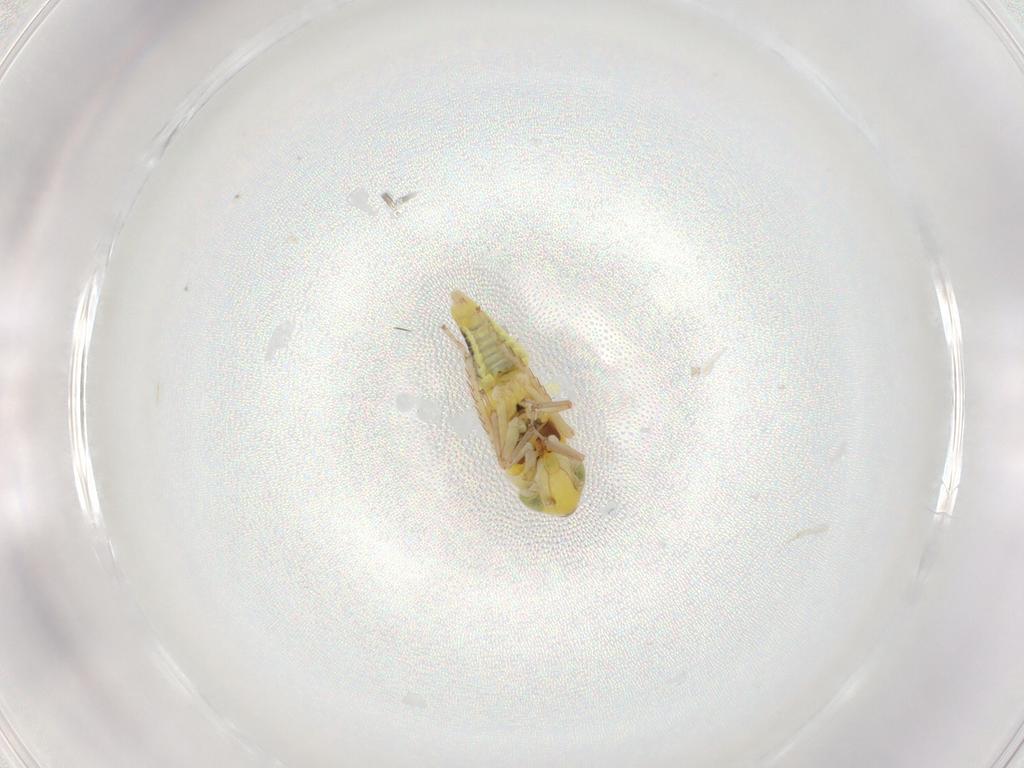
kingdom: Animalia
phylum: Arthropoda
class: Insecta
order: Hemiptera
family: Cicadellidae
